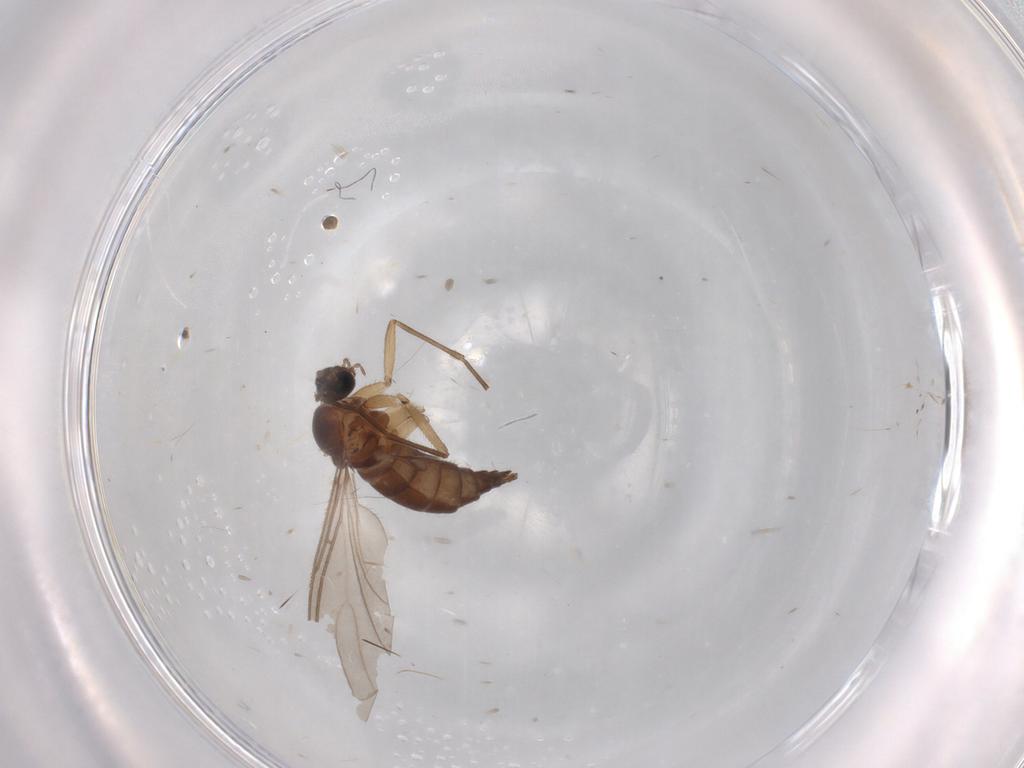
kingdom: Animalia
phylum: Arthropoda
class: Insecta
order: Diptera
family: Sciaridae
